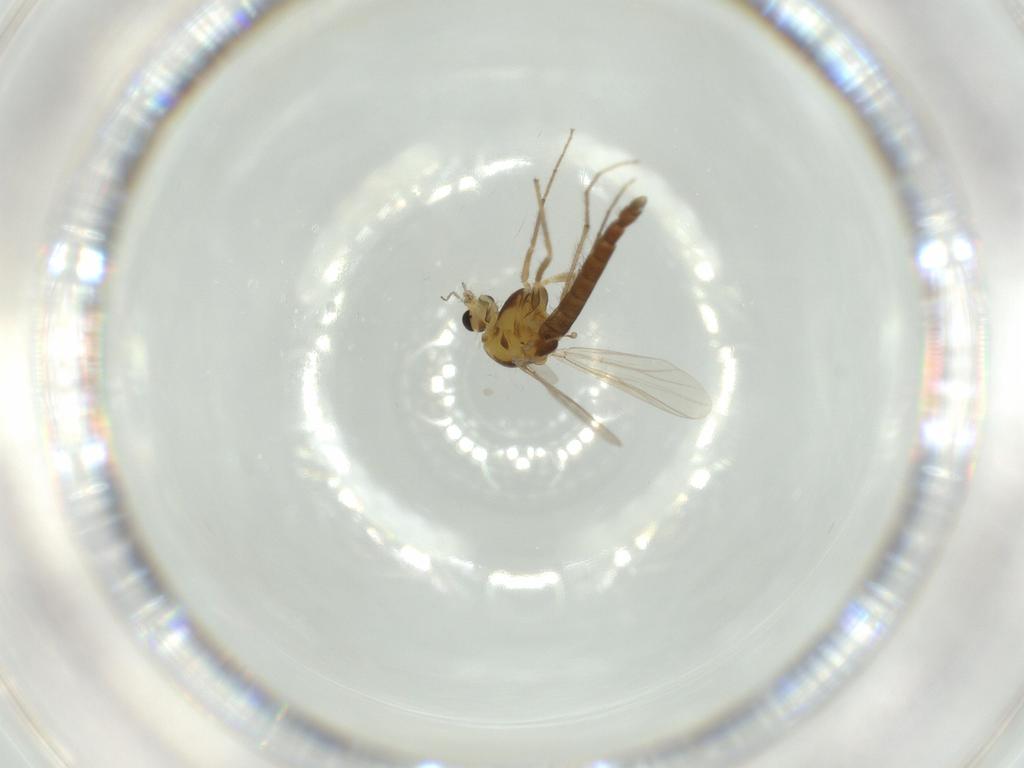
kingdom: Animalia
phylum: Arthropoda
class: Insecta
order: Diptera
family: Chironomidae
